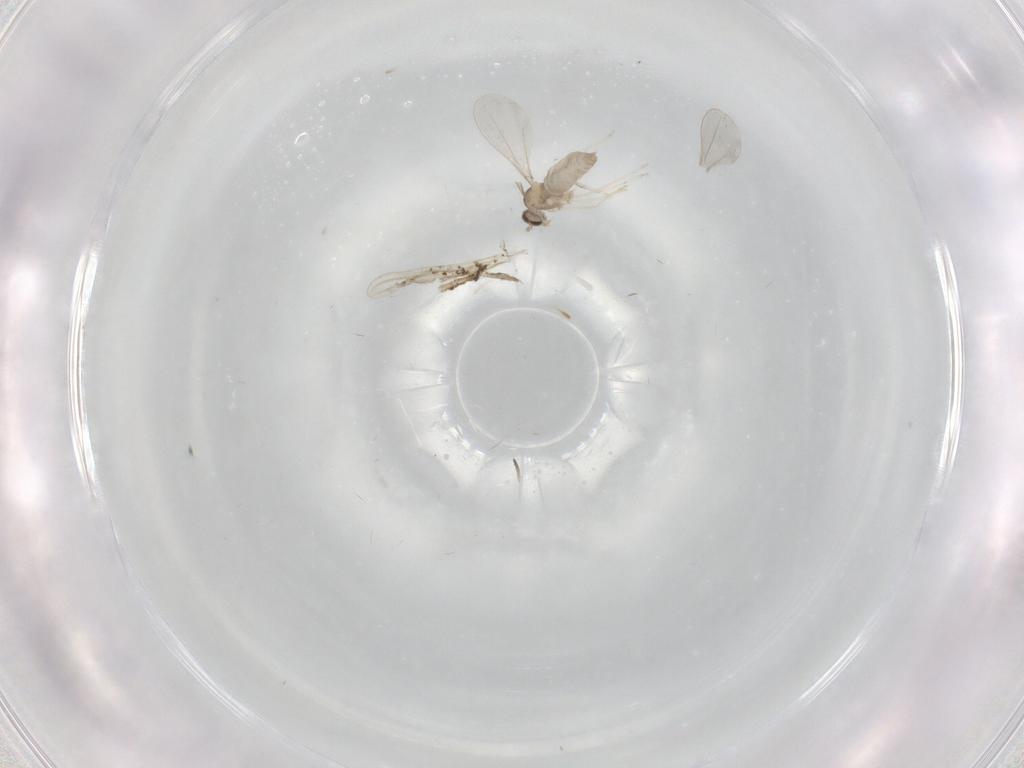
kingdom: Animalia
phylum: Arthropoda
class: Insecta
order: Diptera
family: Cecidomyiidae
